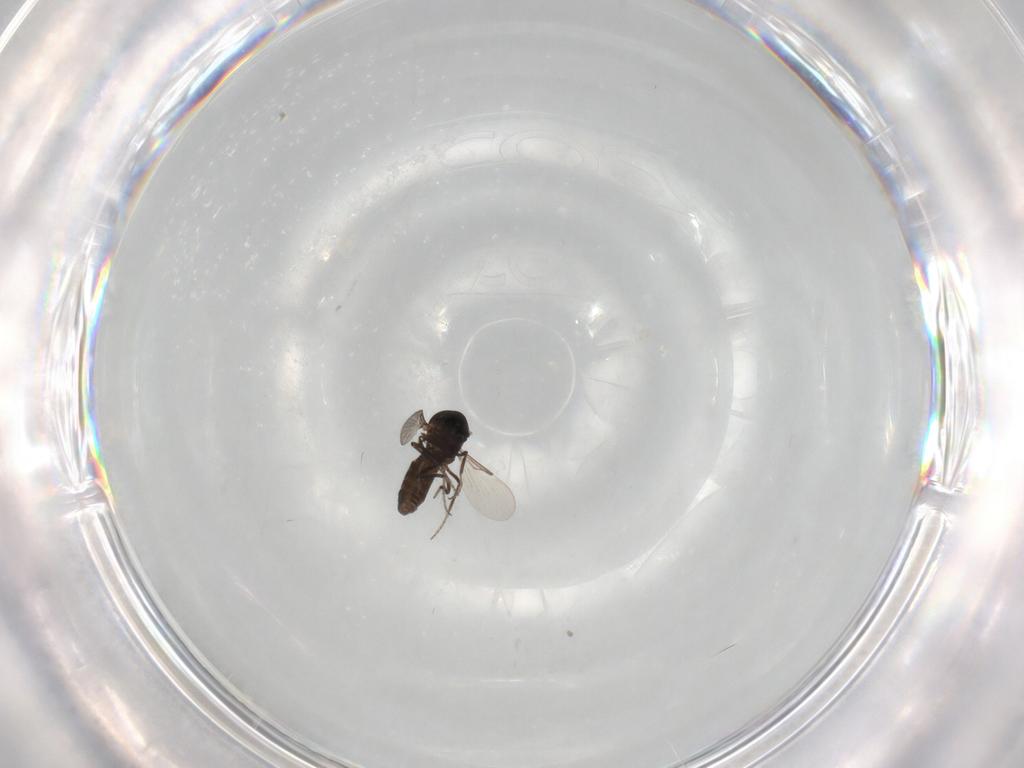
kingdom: Animalia
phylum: Arthropoda
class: Insecta
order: Diptera
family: Ceratopogonidae
